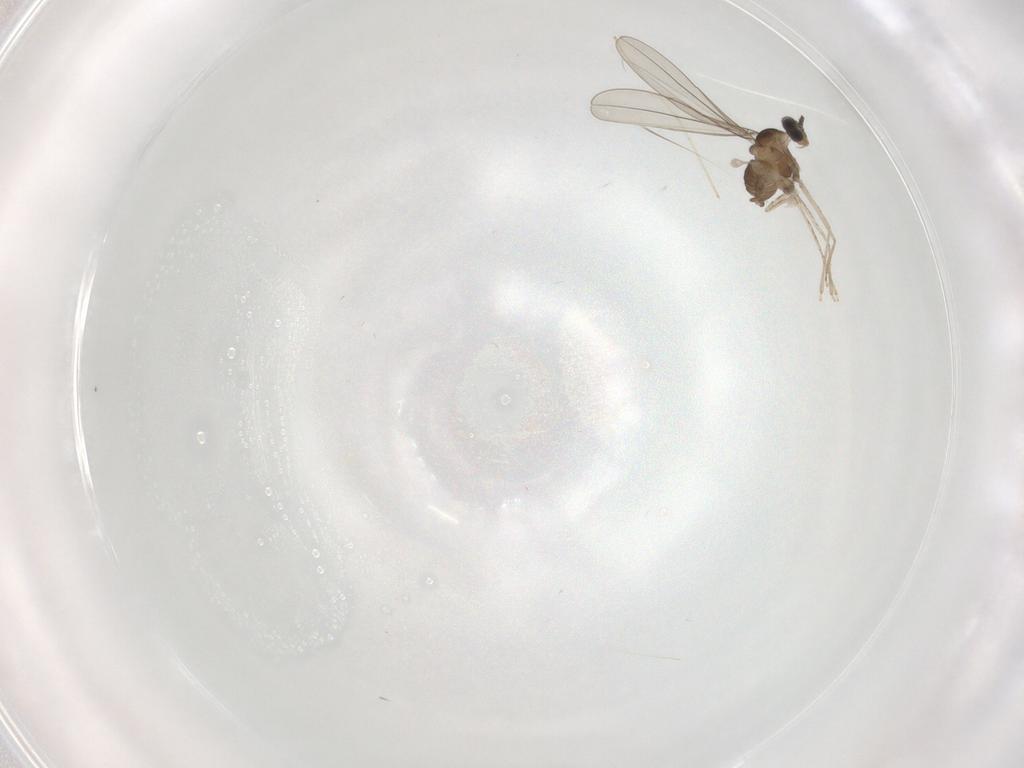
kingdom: Animalia
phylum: Arthropoda
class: Insecta
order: Diptera
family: Cecidomyiidae
